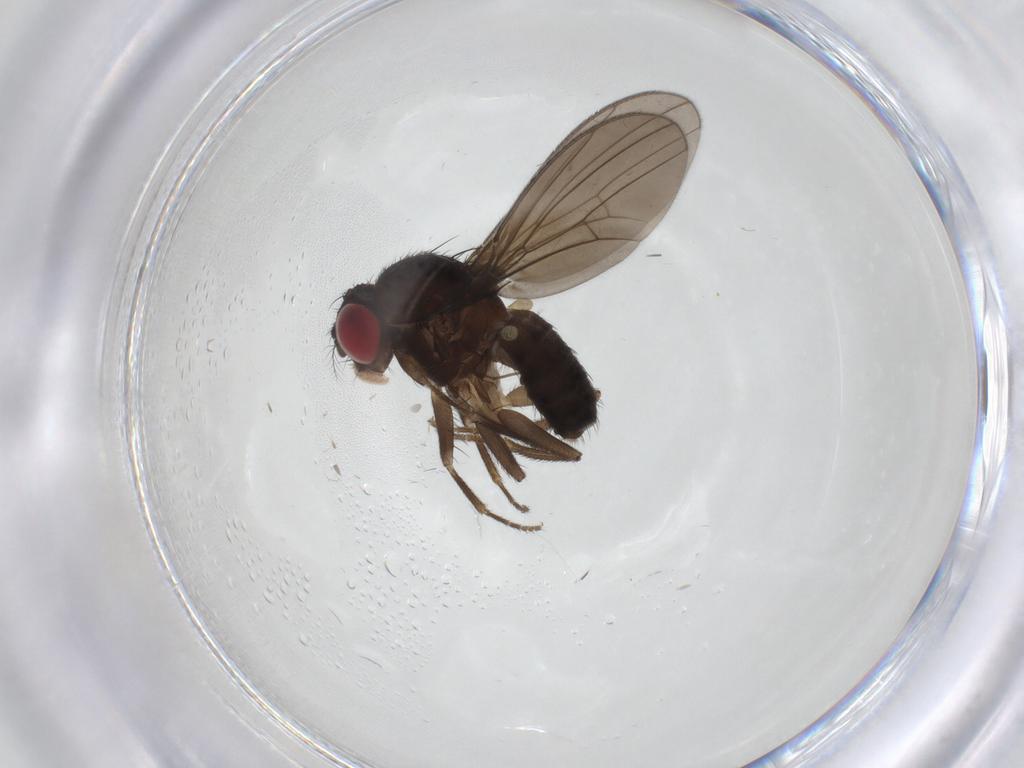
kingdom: Animalia
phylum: Arthropoda
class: Insecta
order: Diptera
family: Drosophilidae
